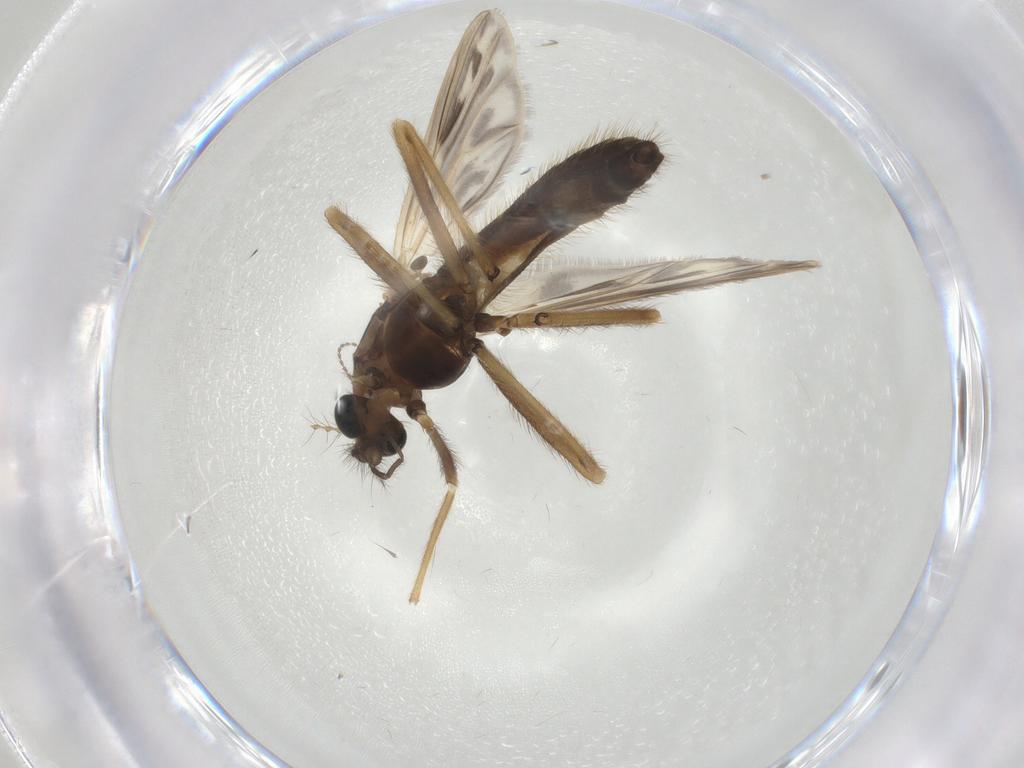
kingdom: Animalia
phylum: Arthropoda
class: Insecta
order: Diptera
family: Chironomidae
